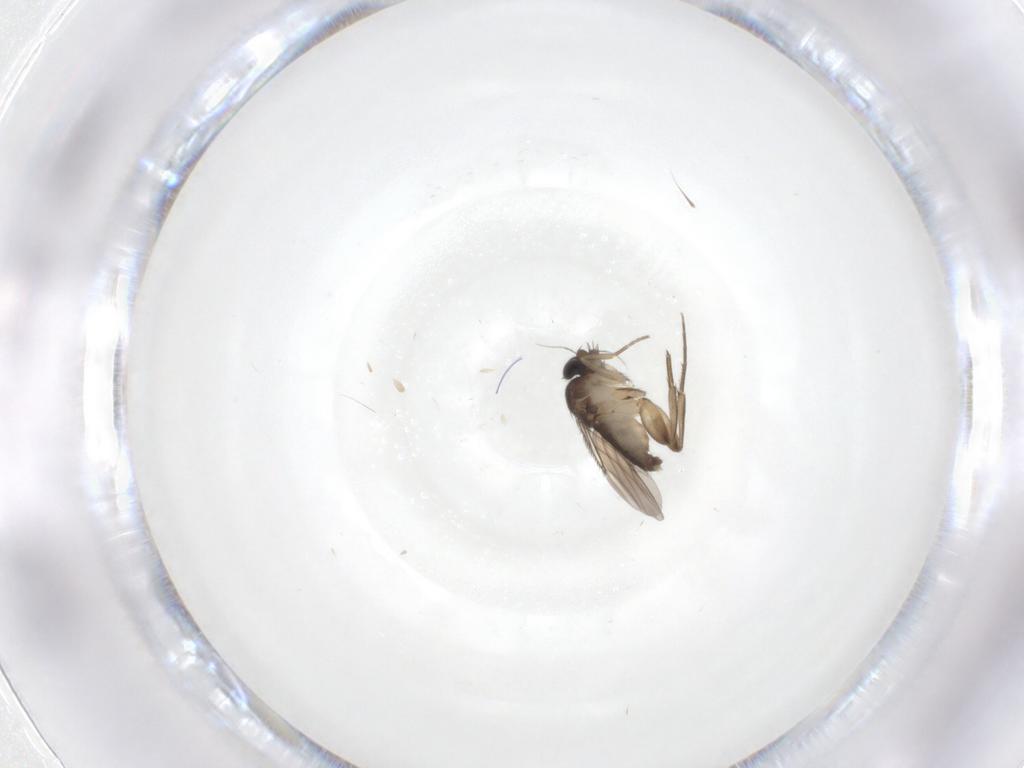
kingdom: Animalia
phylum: Arthropoda
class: Insecta
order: Diptera
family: Phoridae
